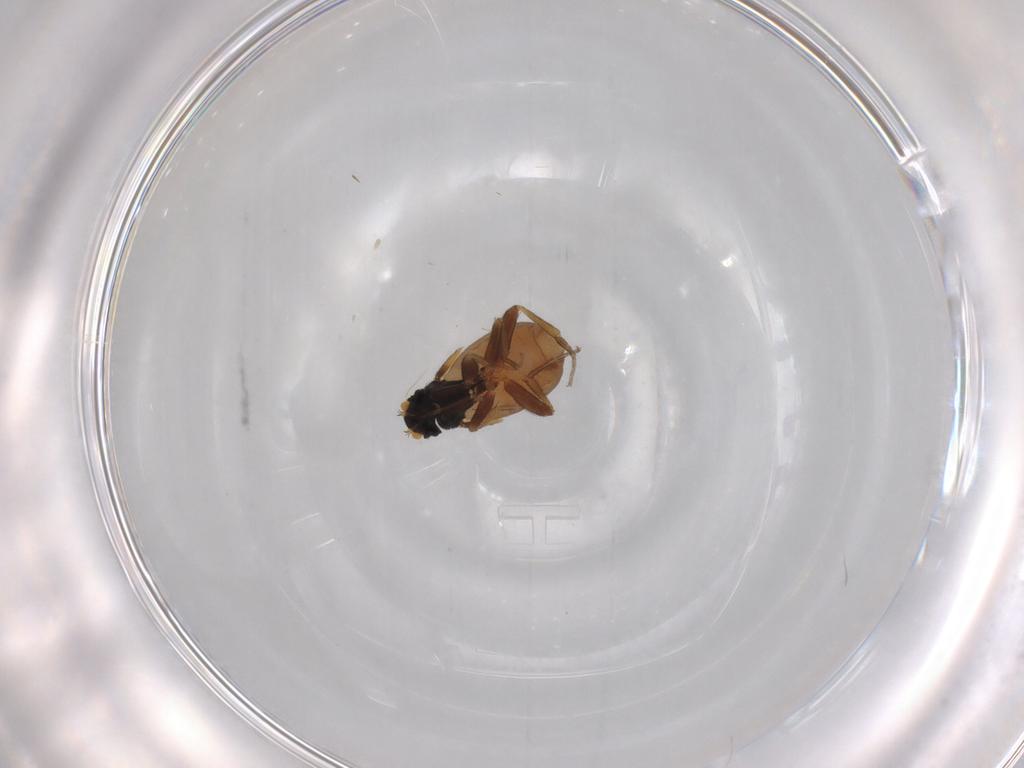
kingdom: Animalia
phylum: Arthropoda
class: Insecta
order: Diptera
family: Phoridae
